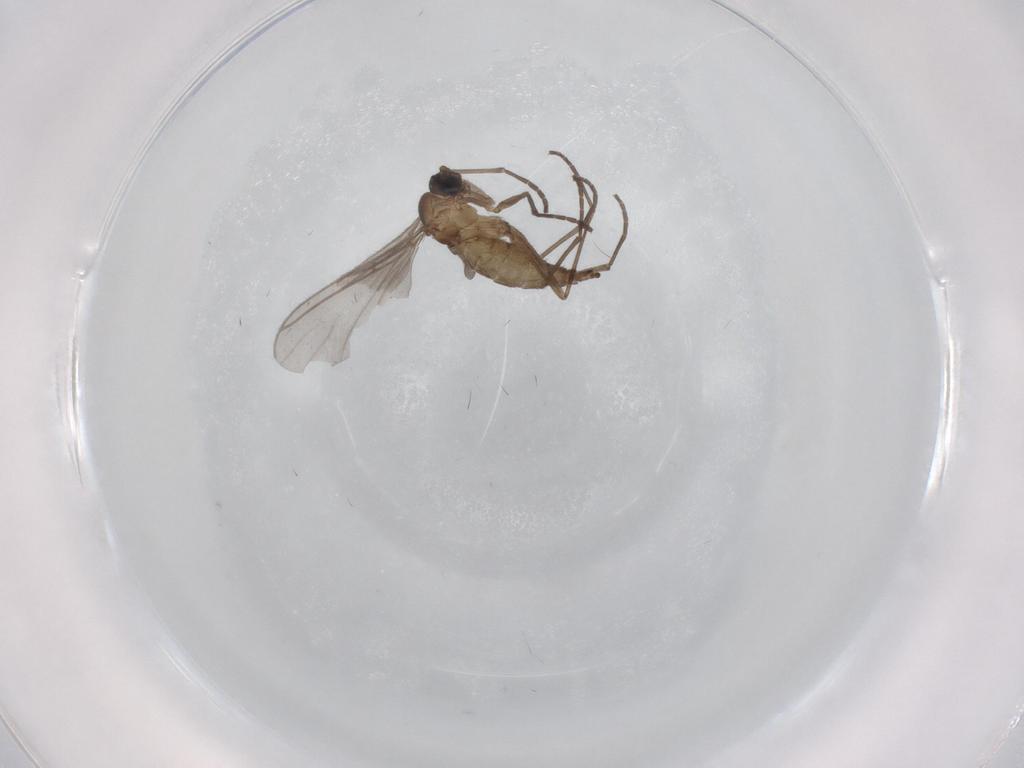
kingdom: Animalia
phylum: Arthropoda
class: Insecta
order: Diptera
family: Sciaridae
